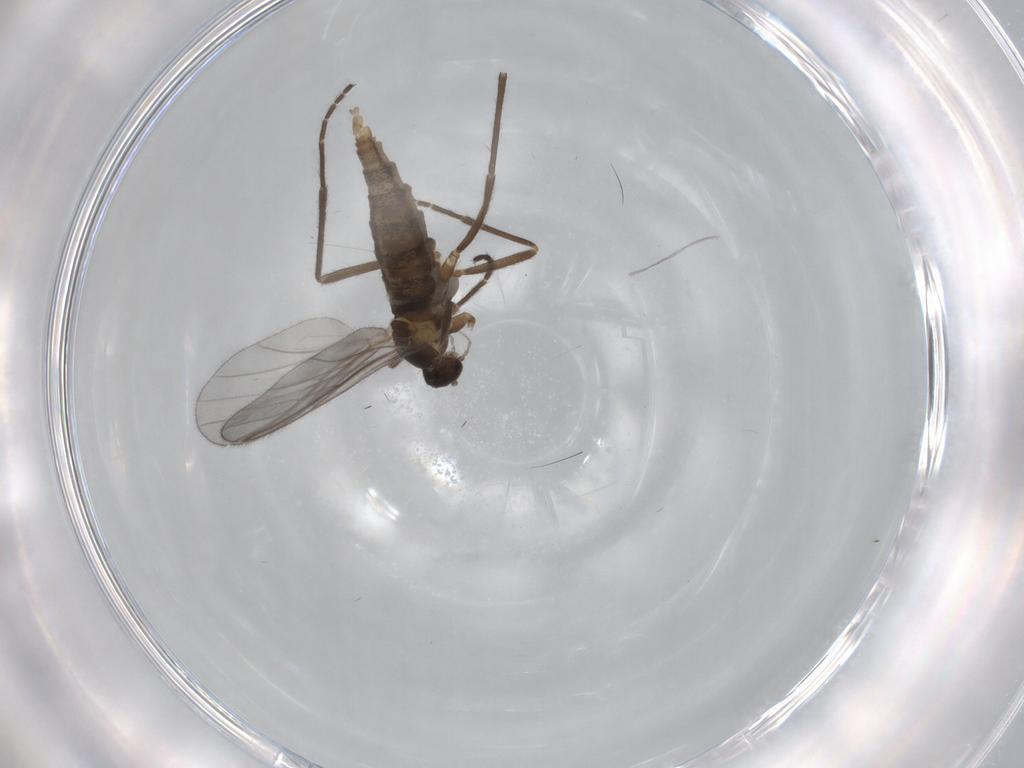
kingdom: Animalia
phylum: Arthropoda
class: Insecta
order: Diptera
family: Cecidomyiidae
